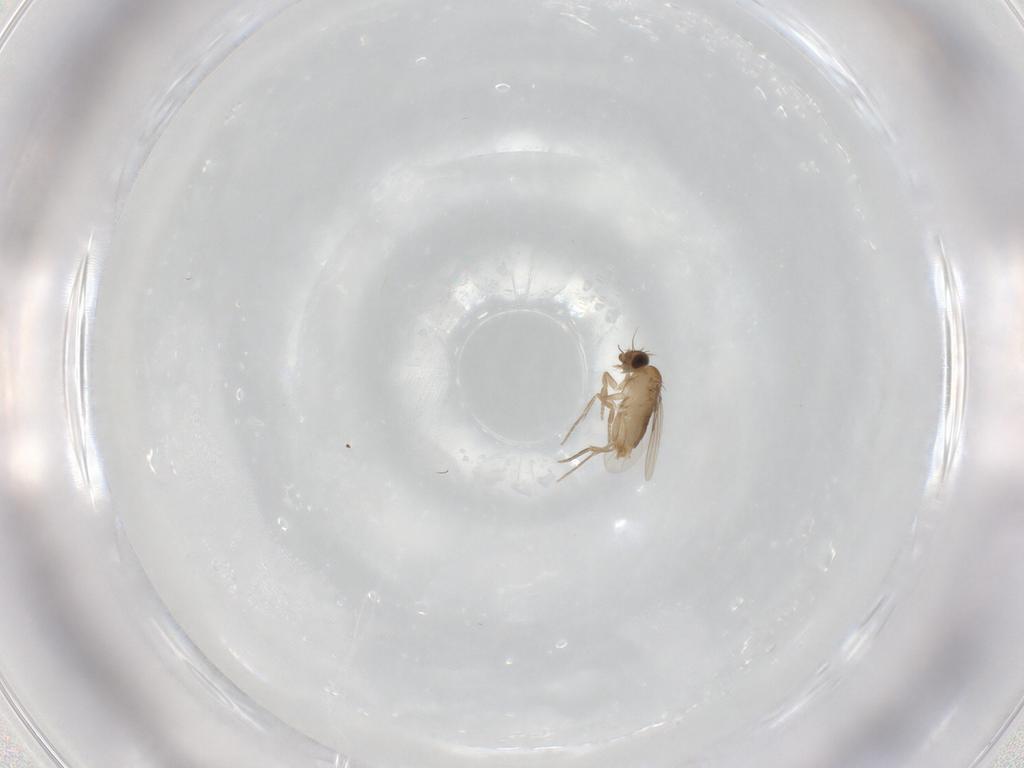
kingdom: Animalia
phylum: Arthropoda
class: Insecta
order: Diptera
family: Phoridae
